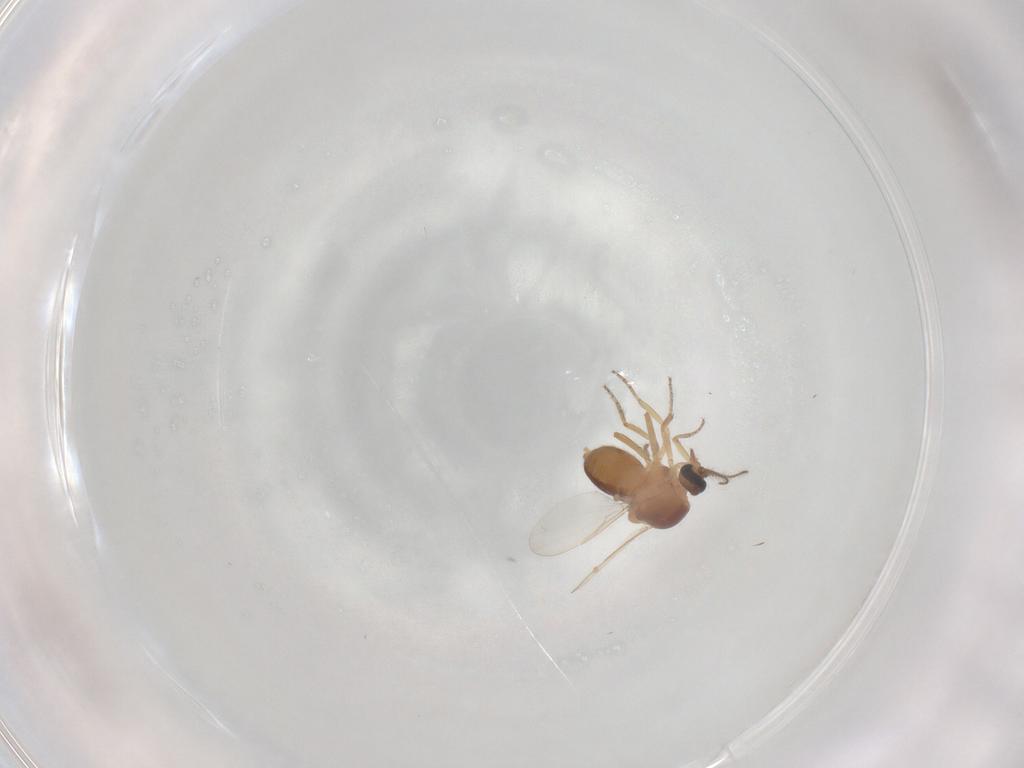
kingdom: Animalia
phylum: Arthropoda
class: Insecta
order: Diptera
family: Ceratopogonidae
